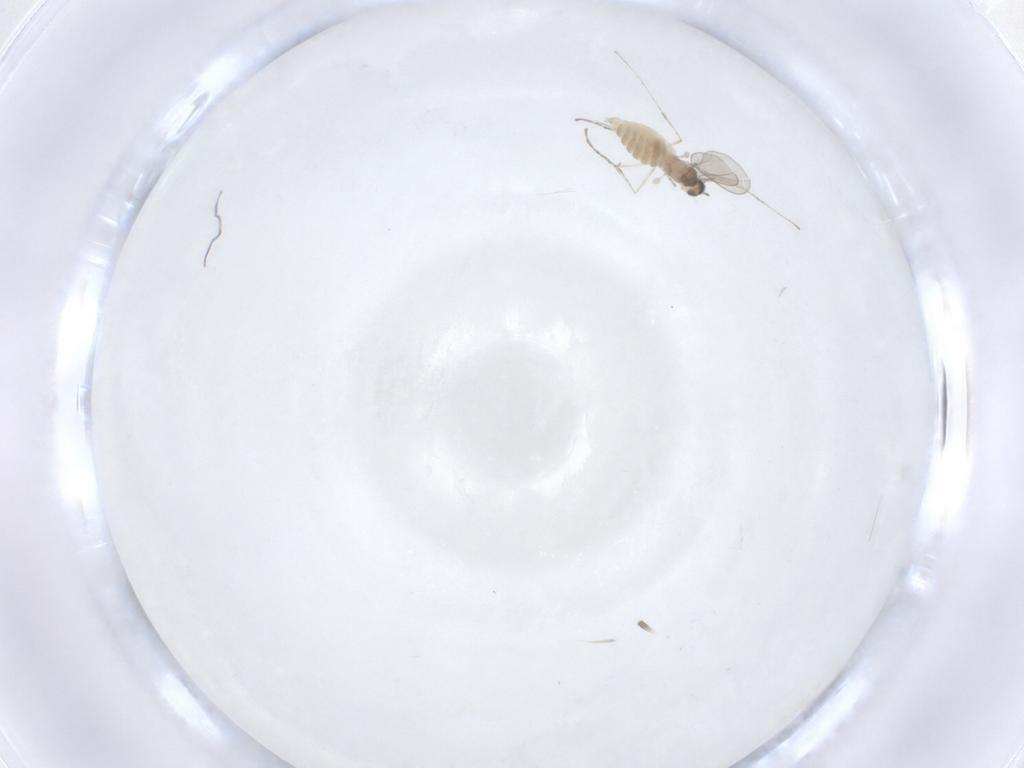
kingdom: Animalia
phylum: Arthropoda
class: Insecta
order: Diptera
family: Cecidomyiidae
